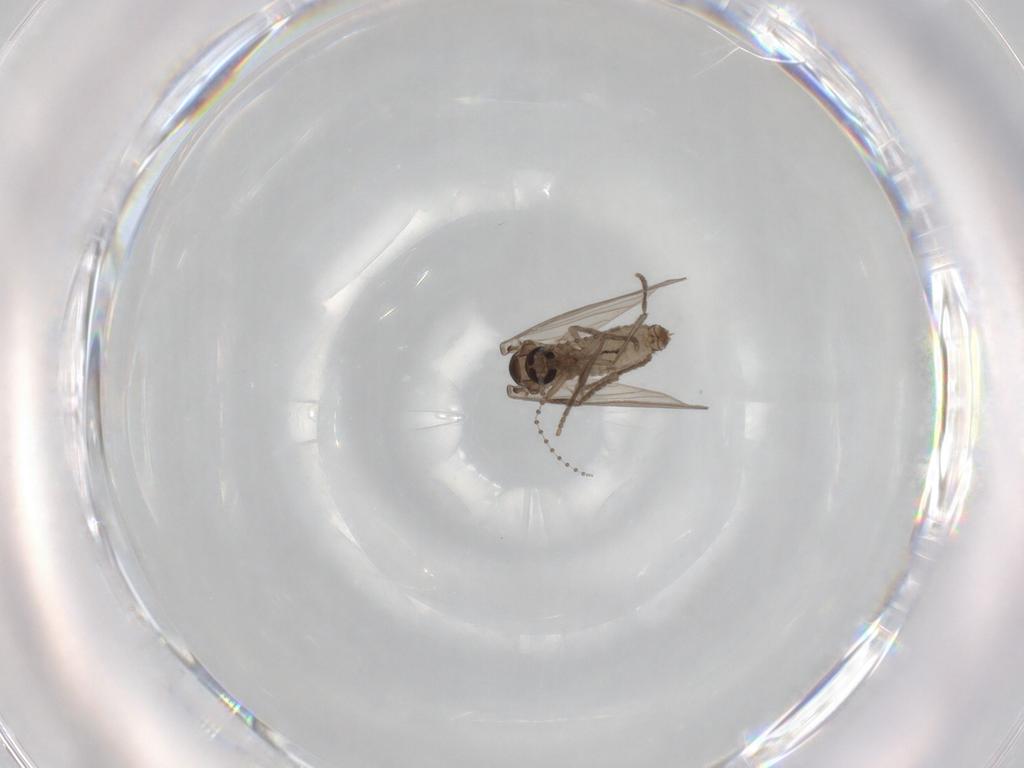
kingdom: Animalia
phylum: Arthropoda
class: Insecta
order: Diptera
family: Psychodidae
